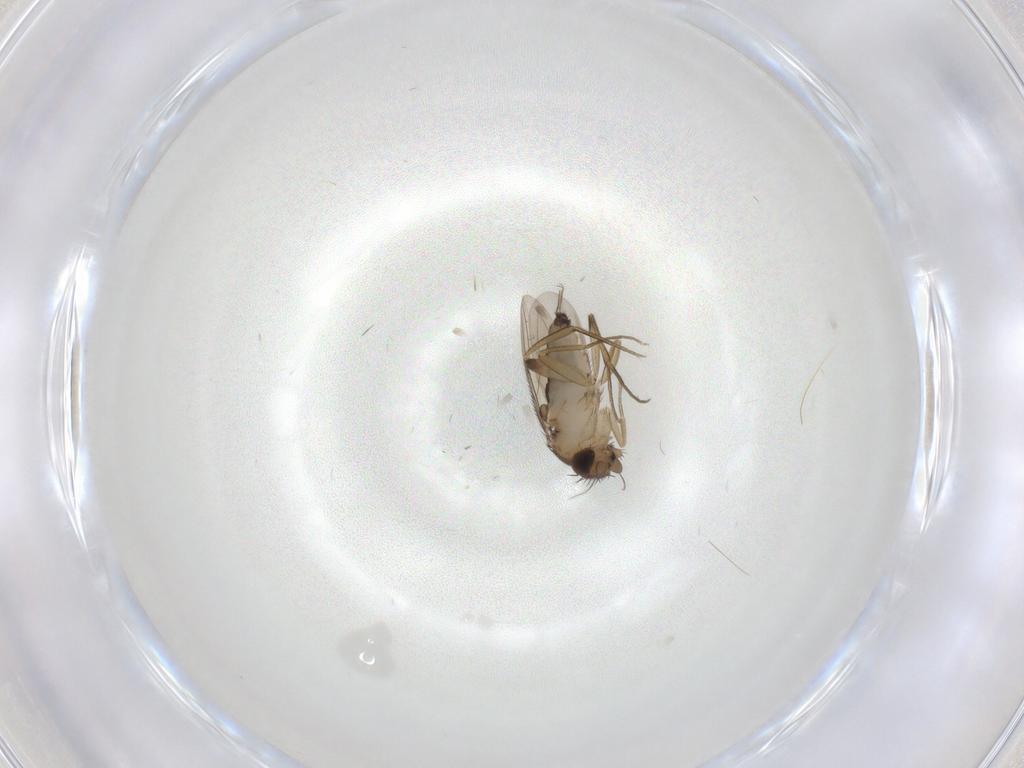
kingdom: Animalia
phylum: Arthropoda
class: Insecta
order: Diptera
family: Phoridae
